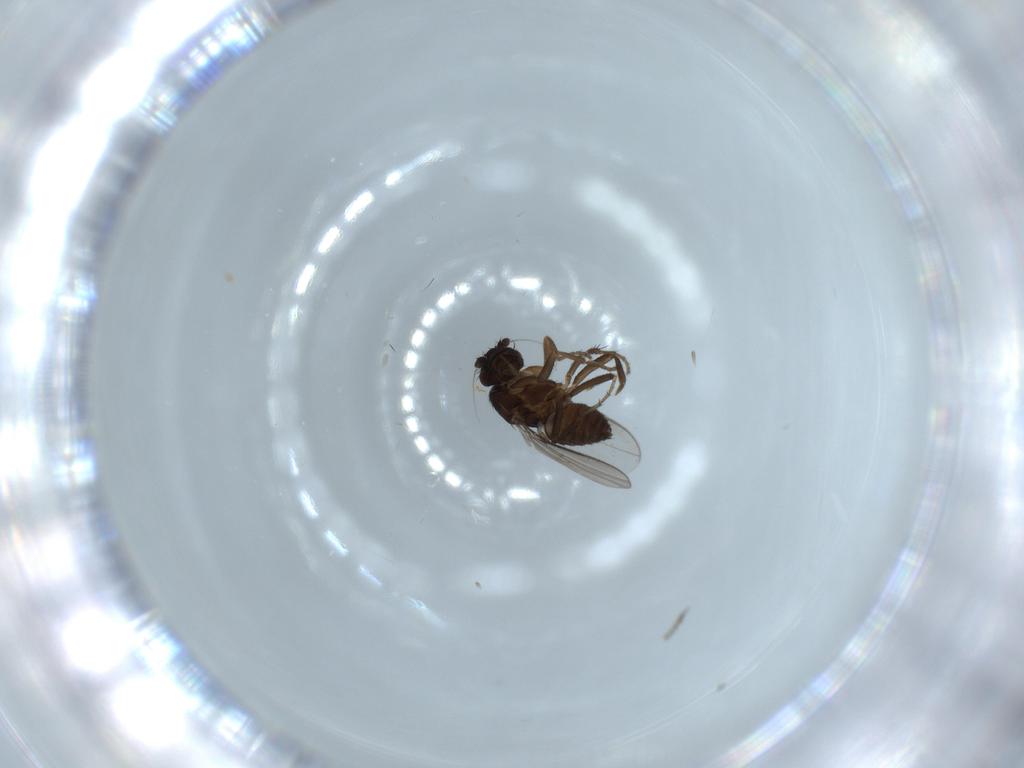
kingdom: Animalia
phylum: Arthropoda
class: Insecta
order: Diptera
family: Sphaeroceridae
